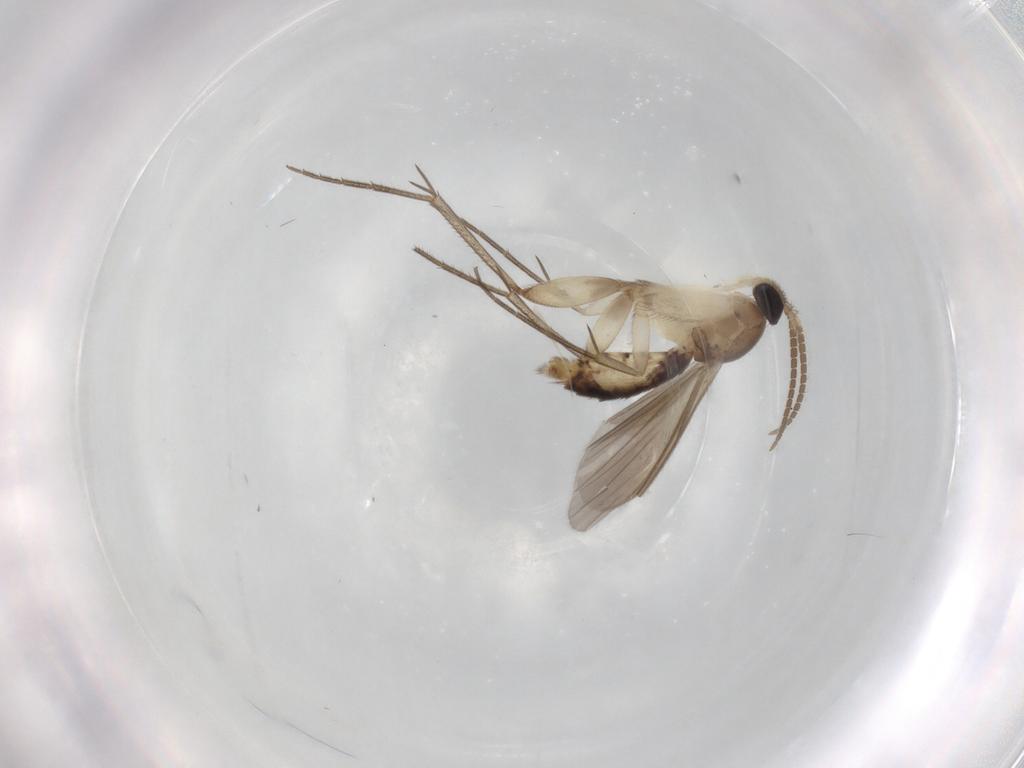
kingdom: Animalia
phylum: Arthropoda
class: Insecta
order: Diptera
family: Mycetophilidae
